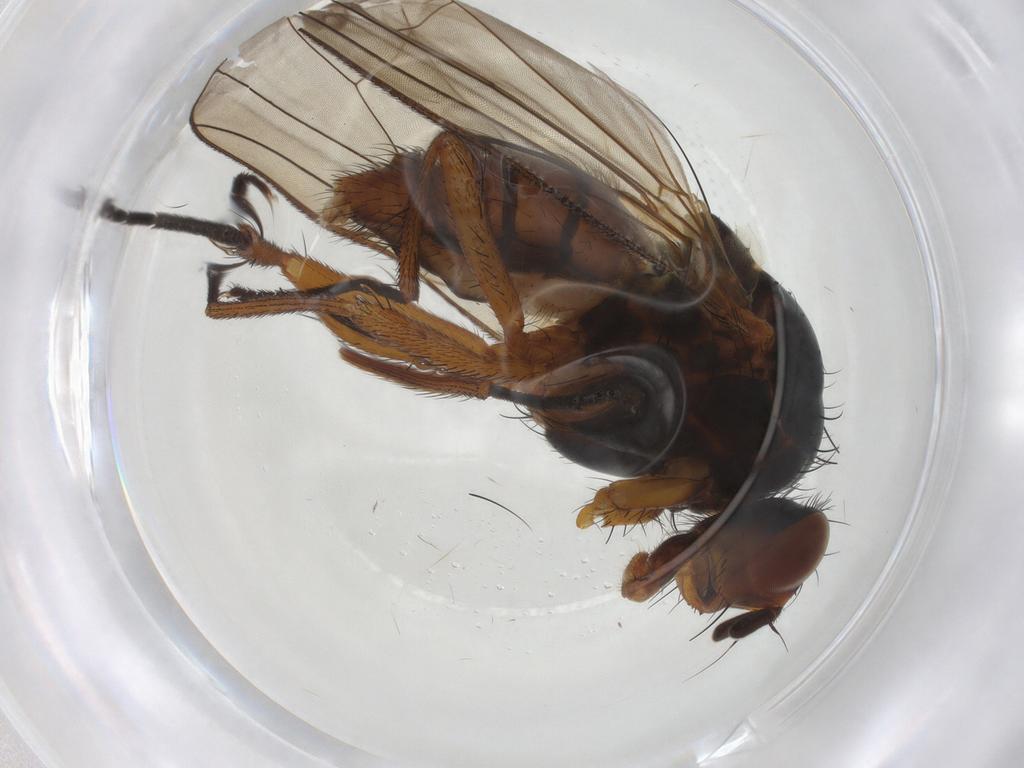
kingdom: Animalia
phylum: Arthropoda
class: Insecta
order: Diptera
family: Anthomyiidae
